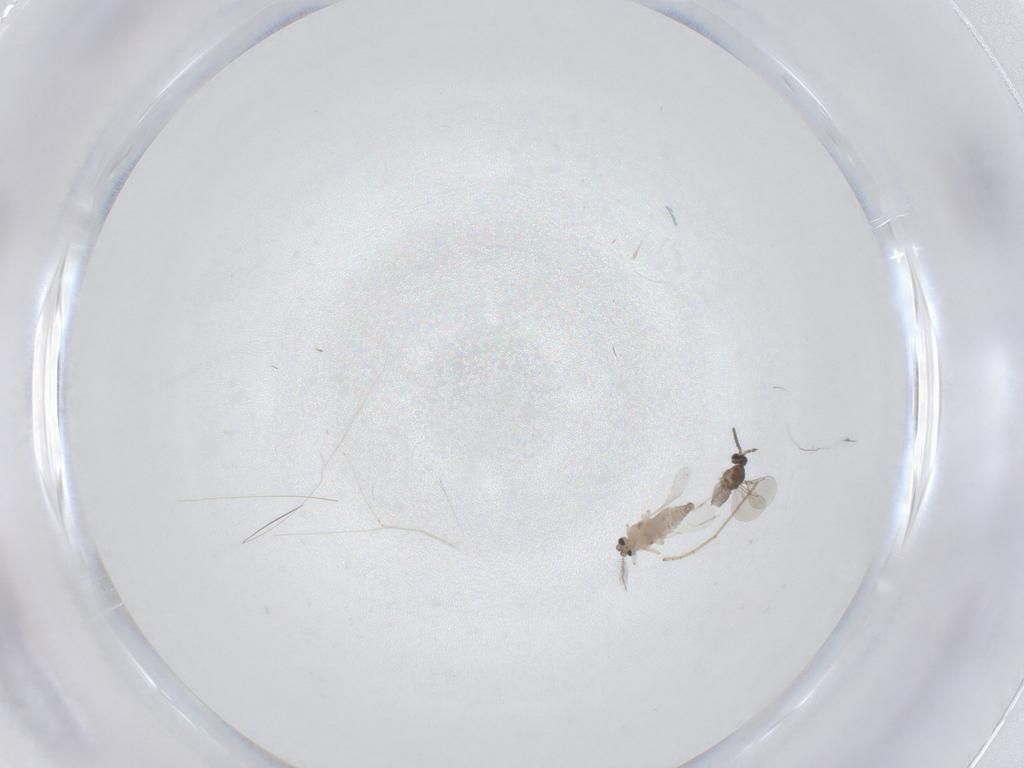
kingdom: Animalia
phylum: Arthropoda
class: Insecta
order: Diptera
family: Ceratopogonidae
